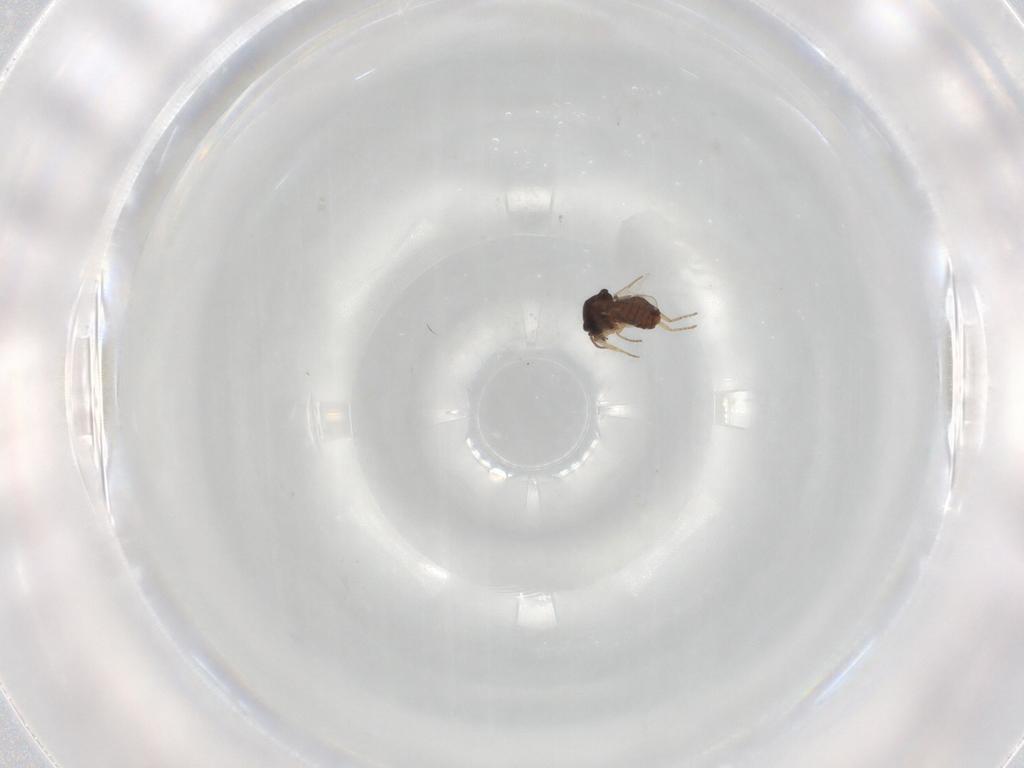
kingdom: Animalia
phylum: Arthropoda
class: Insecta
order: Diptera
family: Ceratopogonidae
